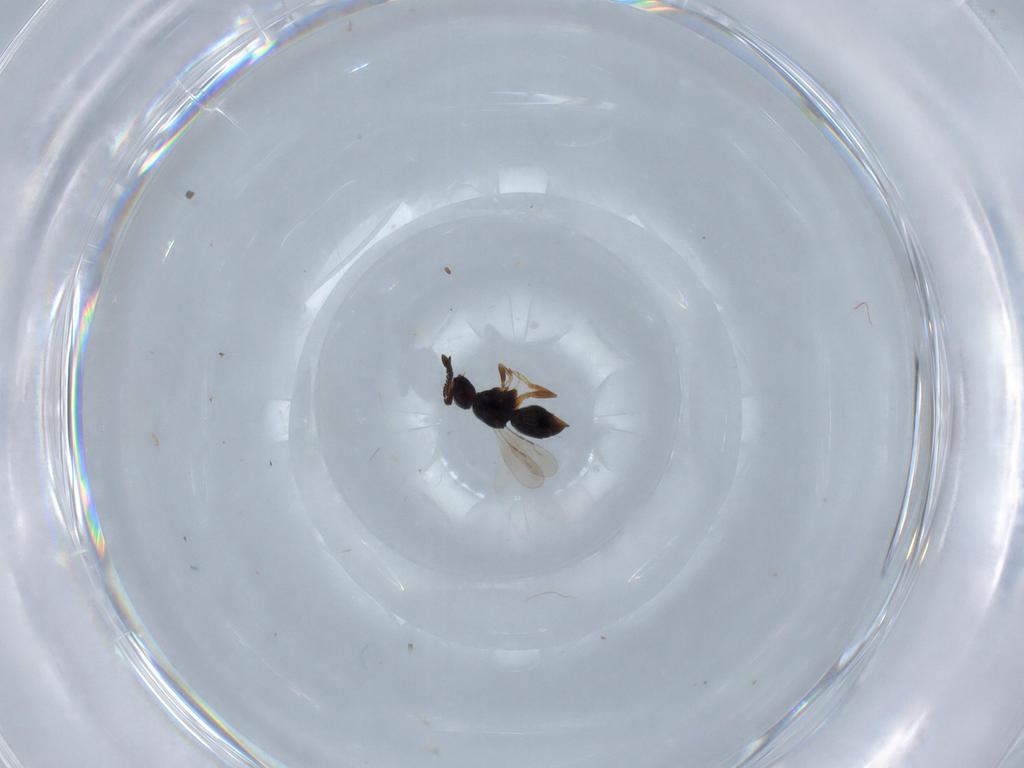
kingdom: Animalia
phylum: Arthropoda
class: Insecta
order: Hymenoptera
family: Ceraphronidae
